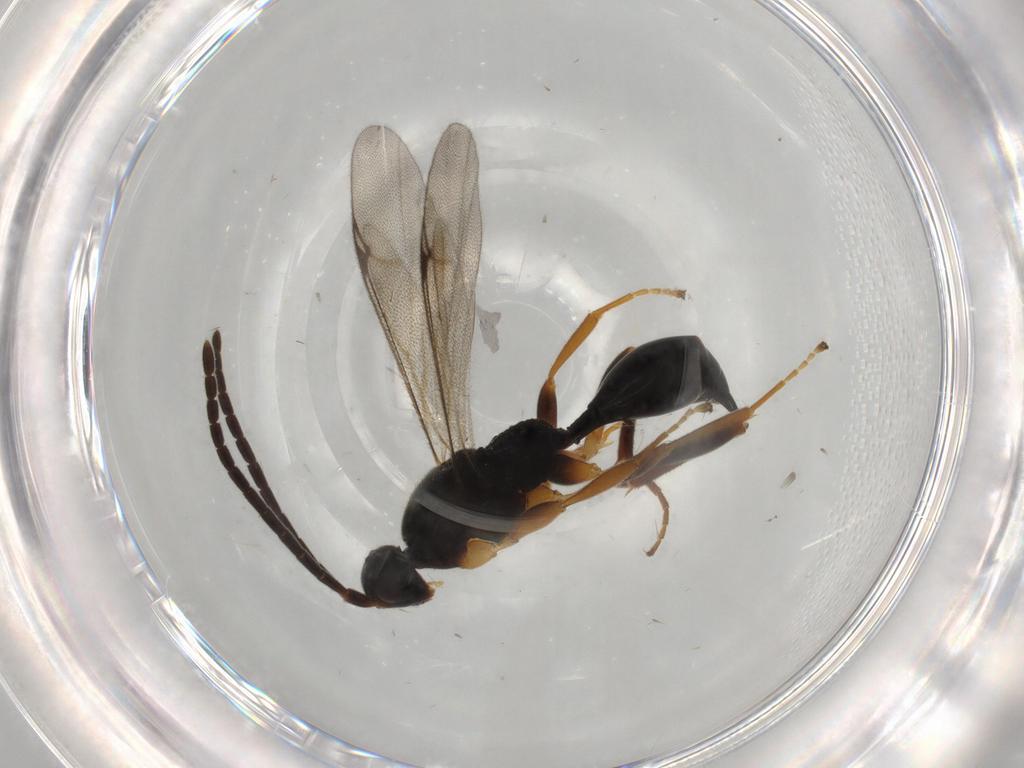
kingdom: Animalia
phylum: Arthropoda
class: Insecta
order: Hymenoptera
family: Proctotrupidae
